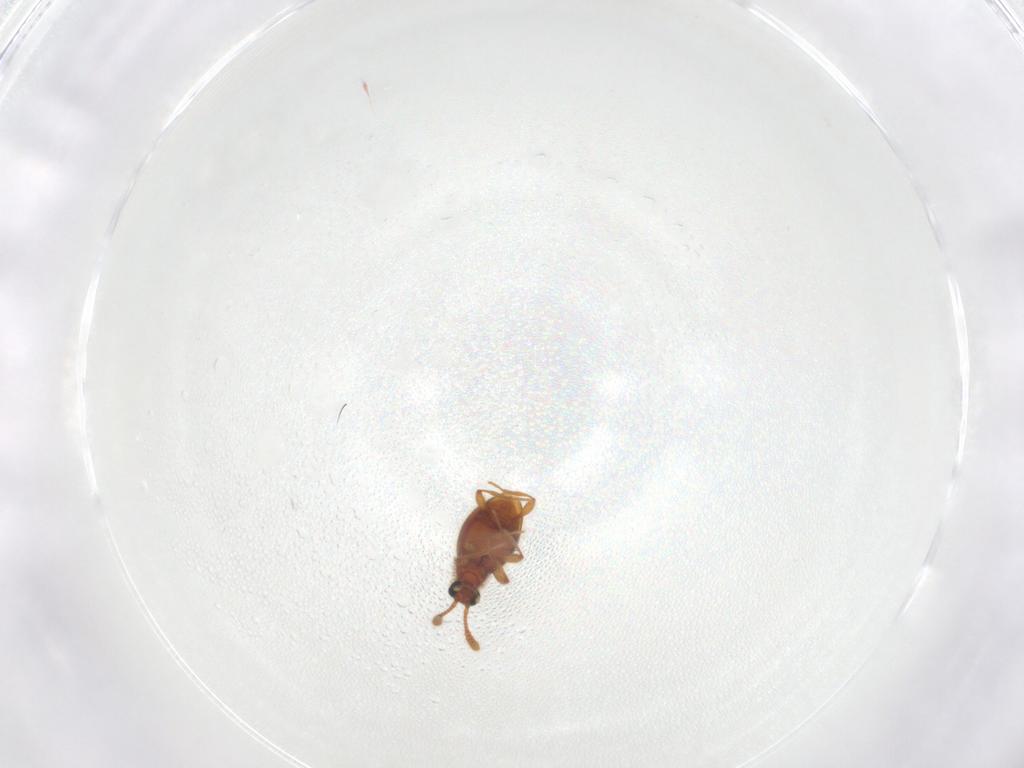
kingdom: Animalia
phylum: Arthropoda
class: Insecta
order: Coleoptera
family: Staphylinidae
